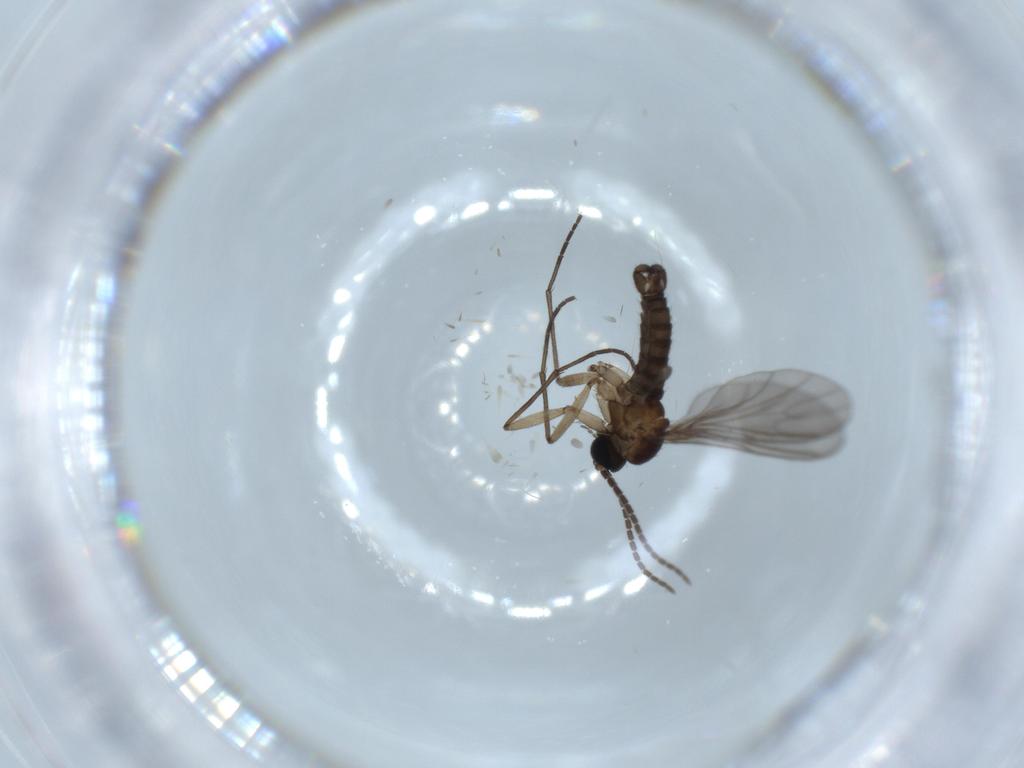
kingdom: Animalia
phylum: Arthropoda
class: Insecta
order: Diptera
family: Sciaridae
